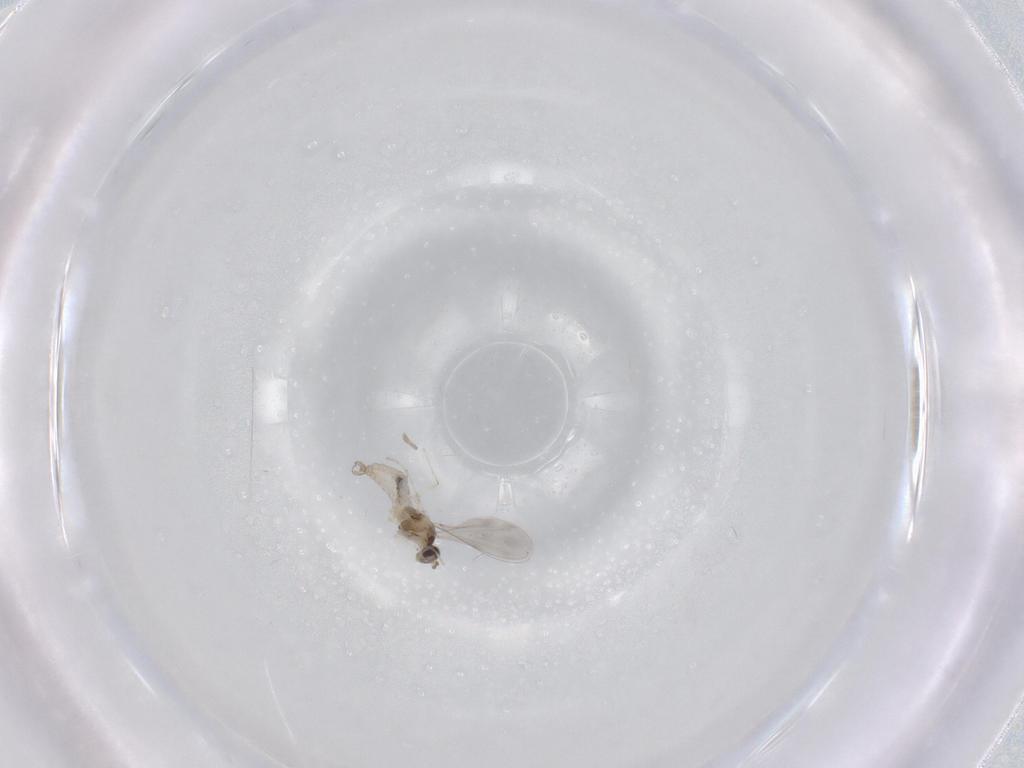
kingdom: Animalia
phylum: Arthropoda
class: Insecta
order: Diptera
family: Cecidomyiidae
